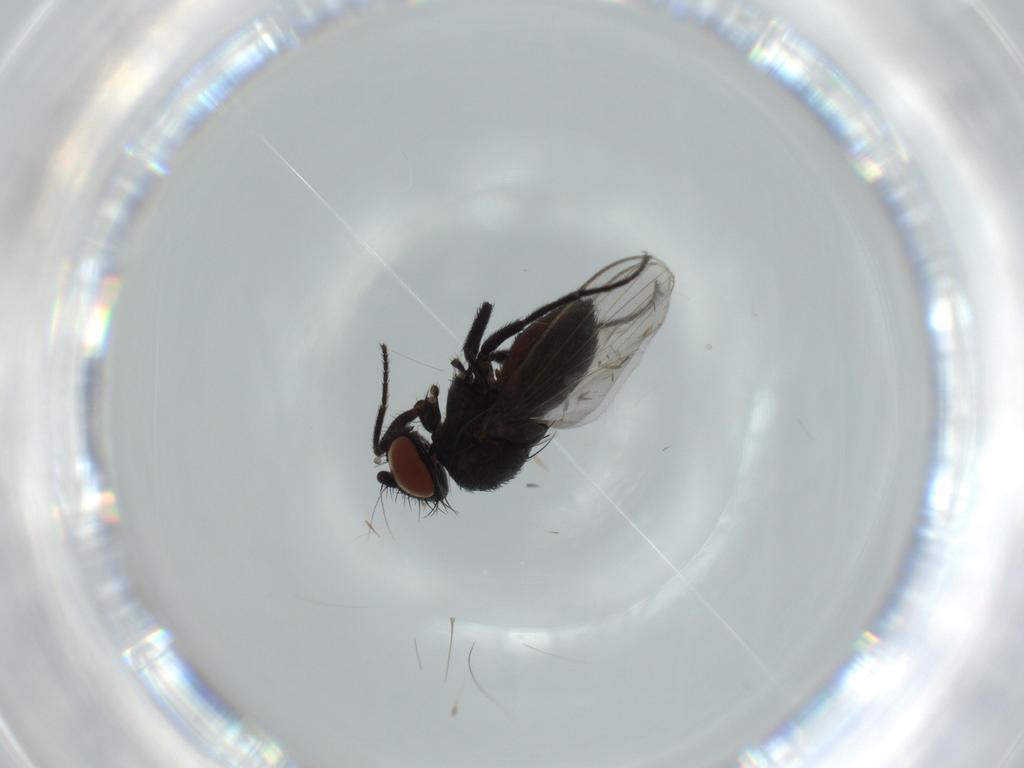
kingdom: Animalia
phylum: Arthropoda
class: Insecta
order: Diptera
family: Milichiidae
